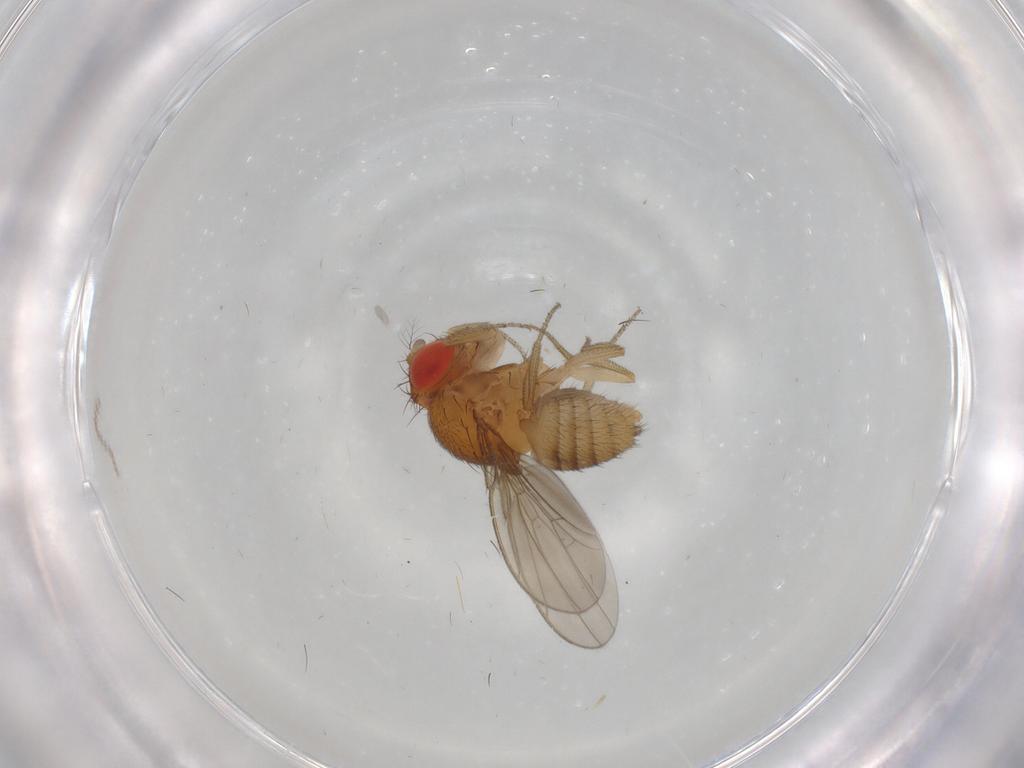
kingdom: Animalia
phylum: Arthropoda
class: Insecta
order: Diptera
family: Drosophilidae
